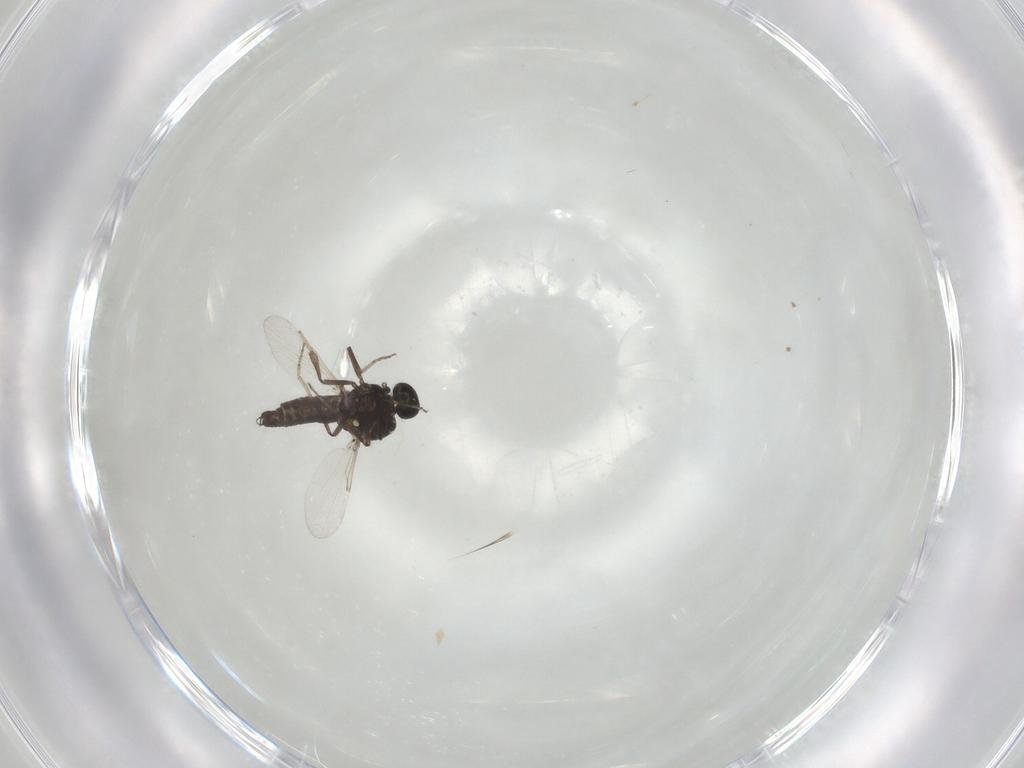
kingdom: Animalia
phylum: Arthropoda
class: Insecta
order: Diptera
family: Ceratopogonidae
